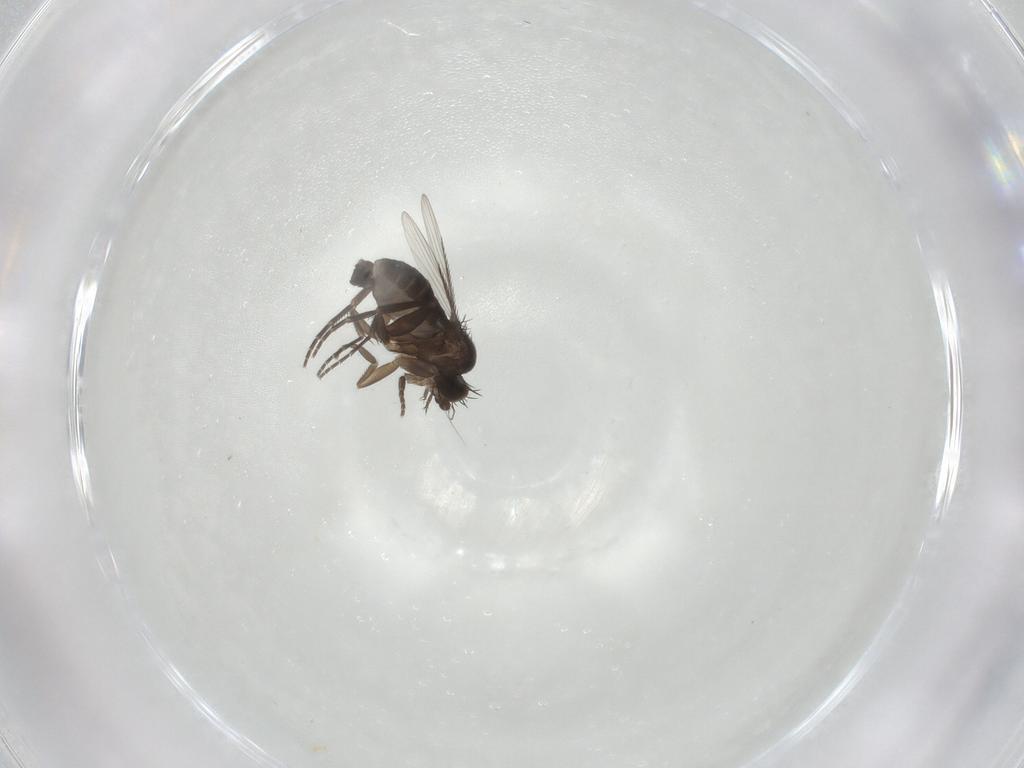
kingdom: Animalia
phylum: Arthropoda
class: Insecta
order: Diptera
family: Phoridae
